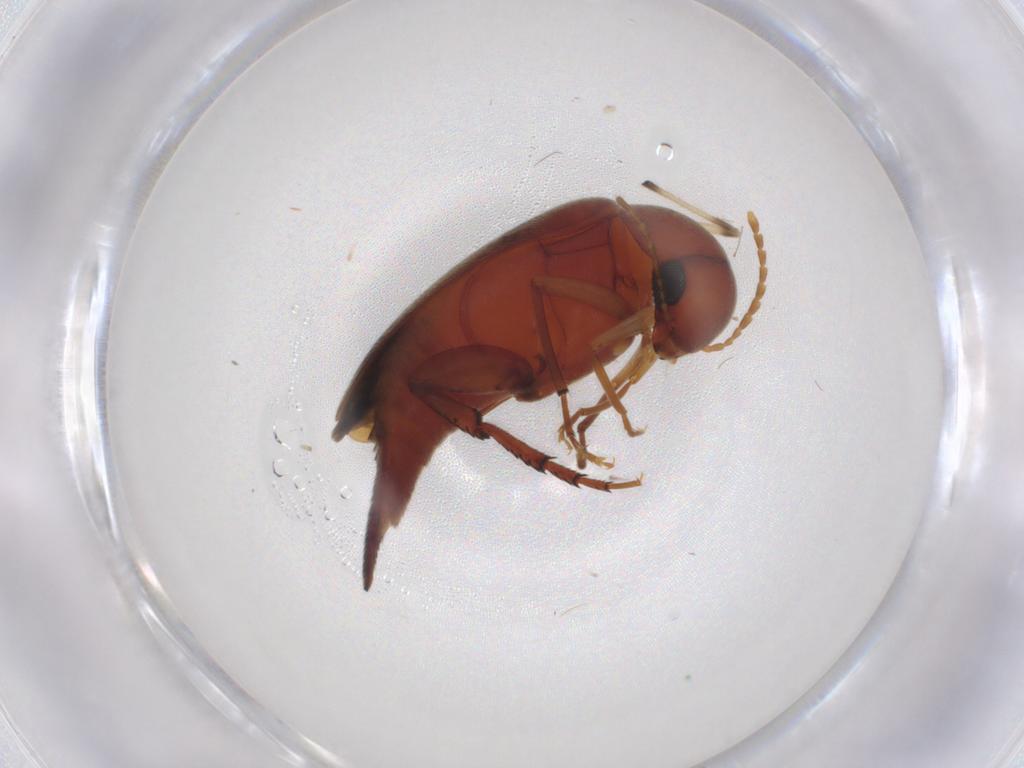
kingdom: Animalia
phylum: Arthropoda
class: Insecta
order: Coleoptera
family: Mordellidae
